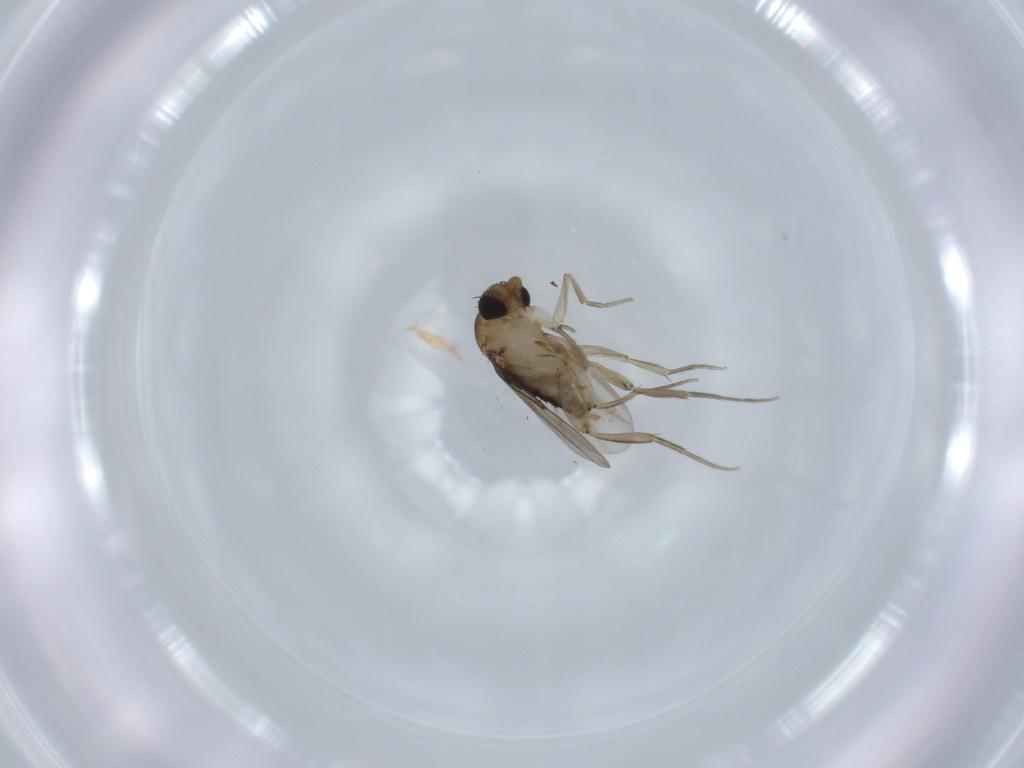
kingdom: Animalia
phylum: Arthropoda
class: Insecta
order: Diptera
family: Phoridae
